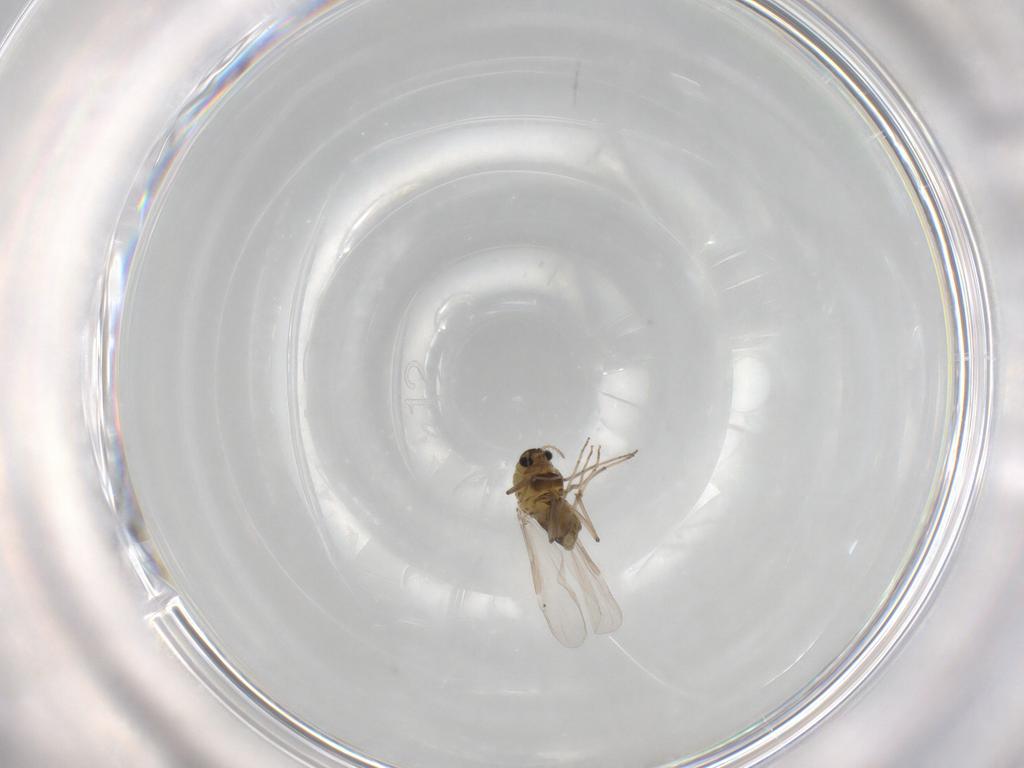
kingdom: Animalia
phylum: Arthropoda
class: Insecta
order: Diptera
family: Chironomidae
